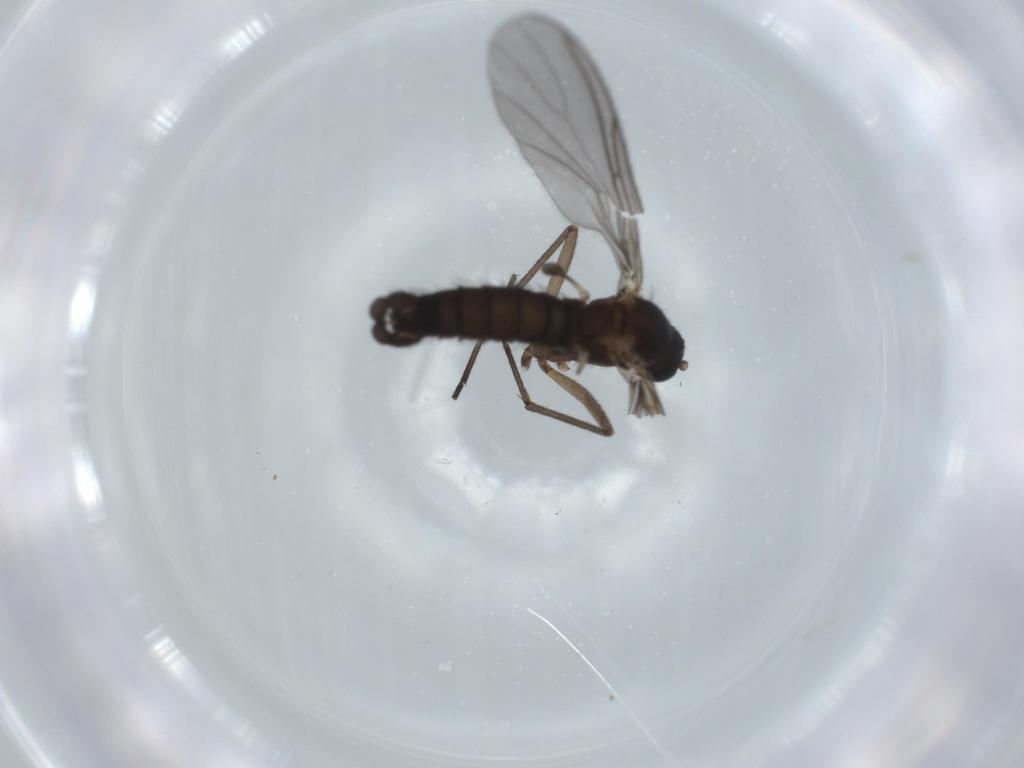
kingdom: Animalia
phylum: Arthropoda
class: Insecta
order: Diptera
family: Sciaridae
